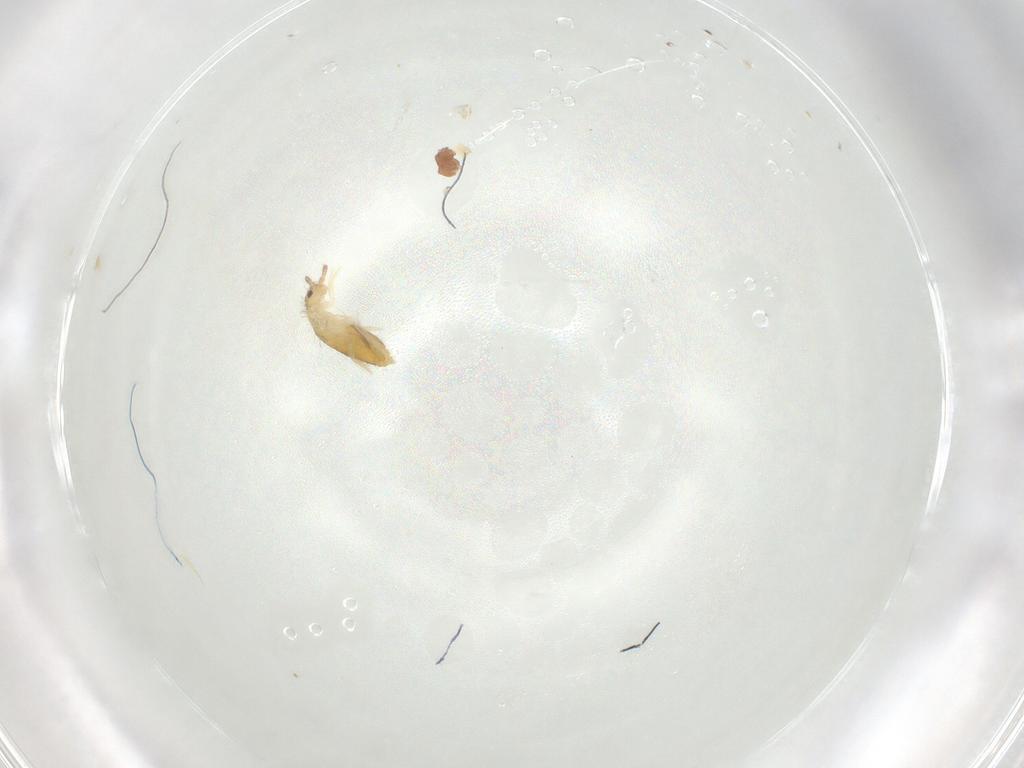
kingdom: Animalia
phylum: Arthropoda
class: Collembola
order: Entomobryomorpha
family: Entomobryidae
